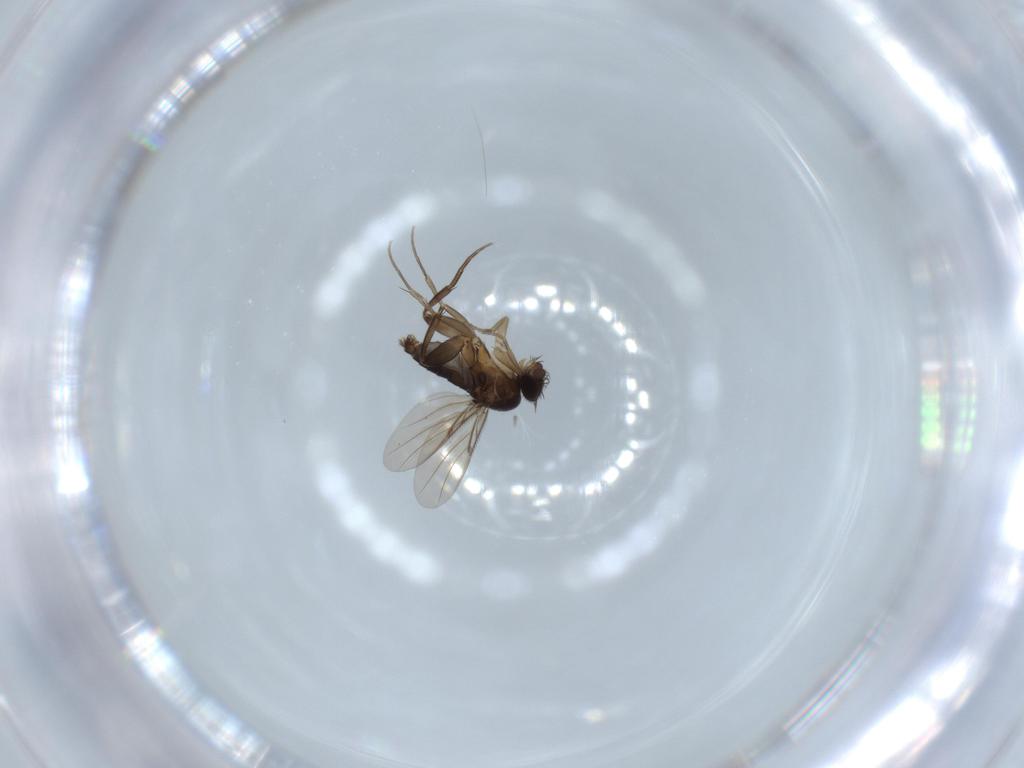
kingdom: Animalia
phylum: Arthropoda
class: Insecta
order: Diptera
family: Phoridae
